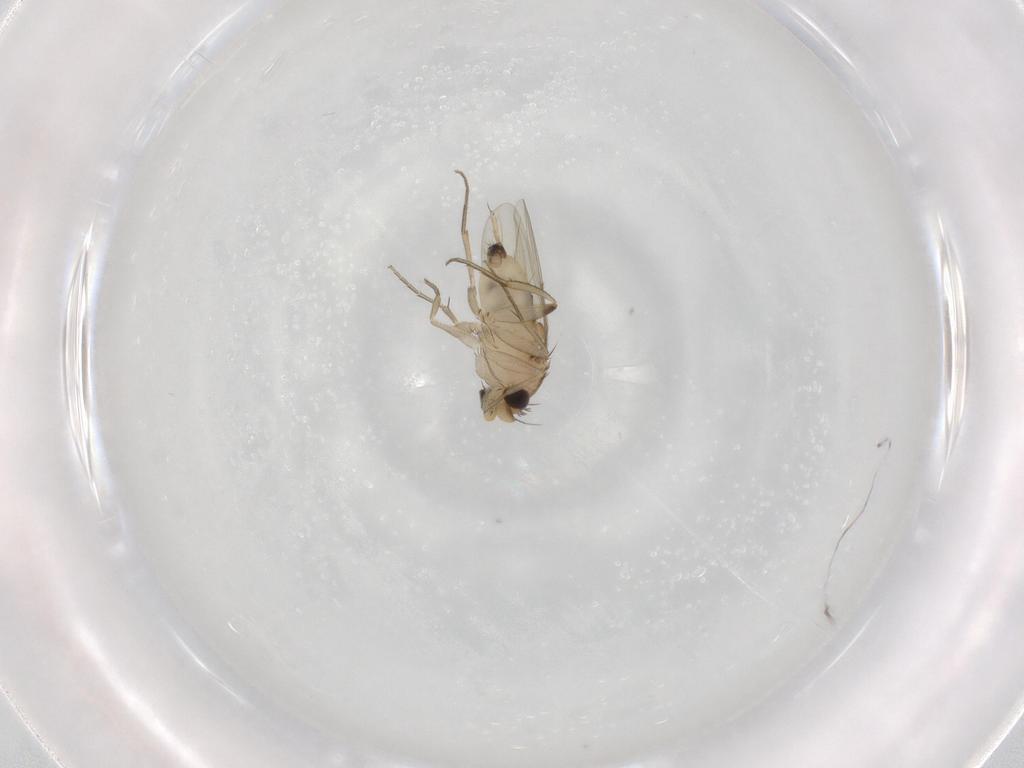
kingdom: Animalia
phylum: Arthropoda
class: Insecta
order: Diptera
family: Phoridae
